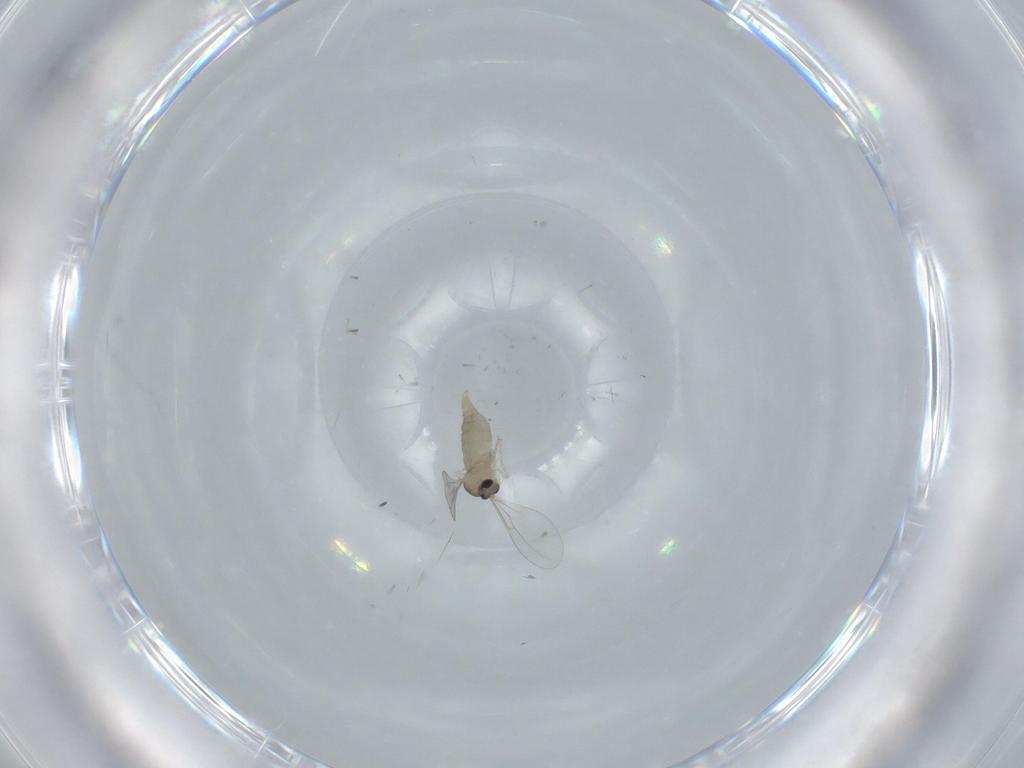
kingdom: Animalia
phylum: Arthropoda
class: Insecta
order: Diptera
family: Cecidomyiidae
